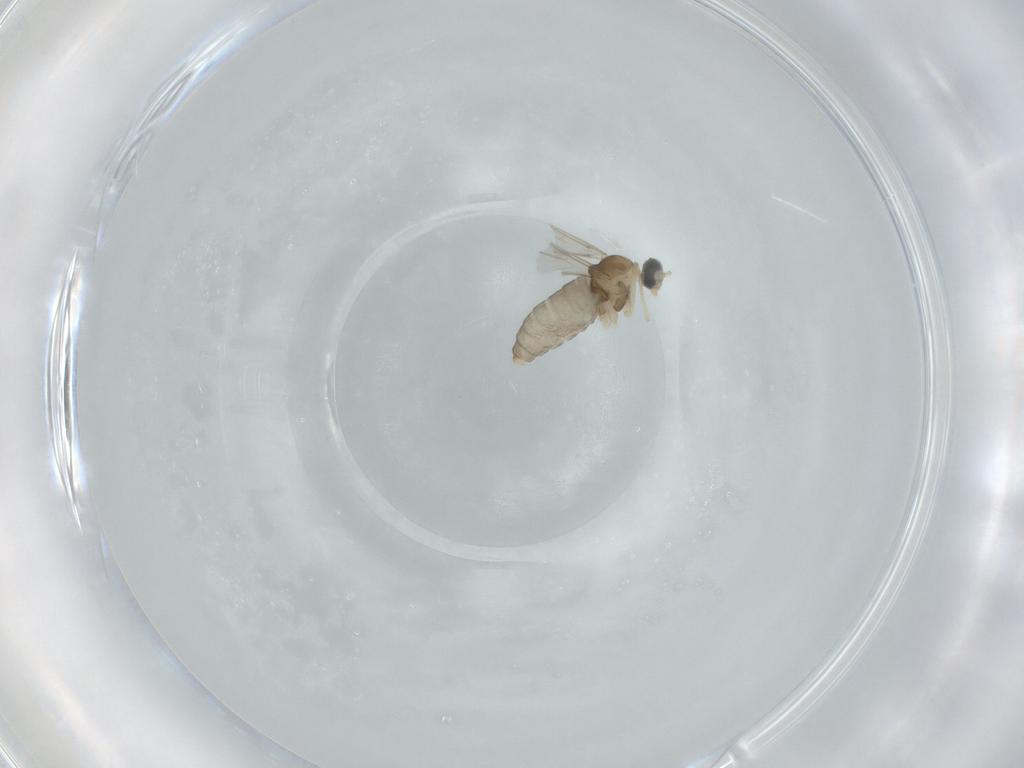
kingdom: Animalia
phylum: Arthropoda
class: Insecta
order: Diptera
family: Cecidomyiidae
